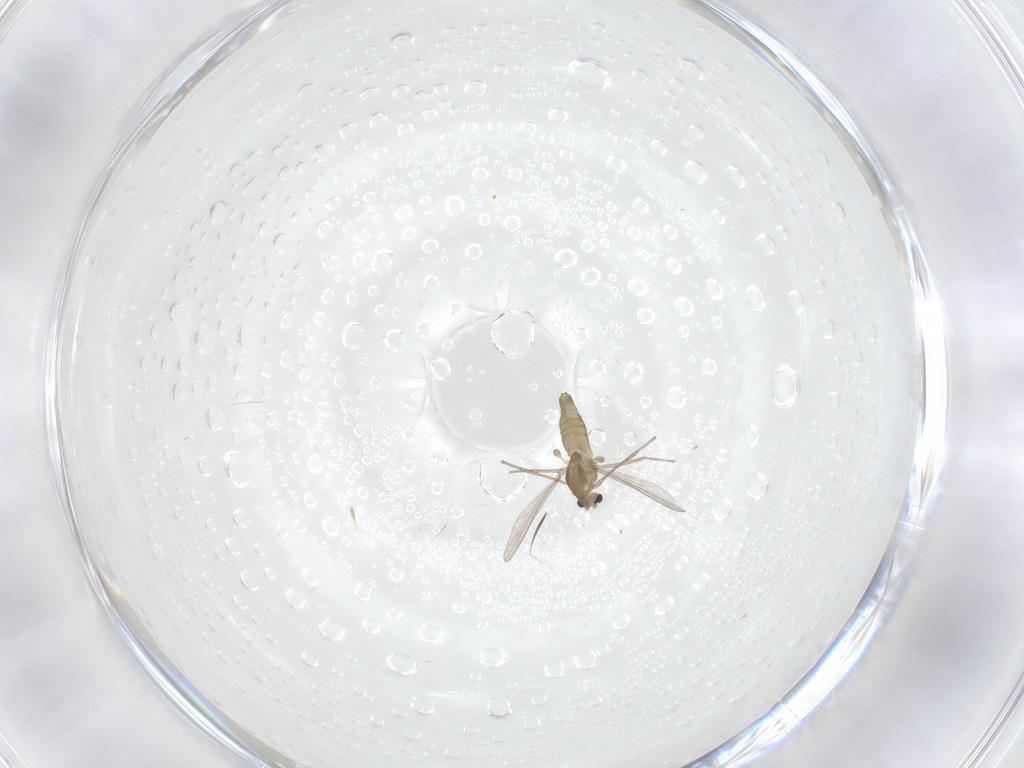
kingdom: Animalia
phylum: Arthropoda
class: Insecta
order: Diptera
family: Chironomidae
